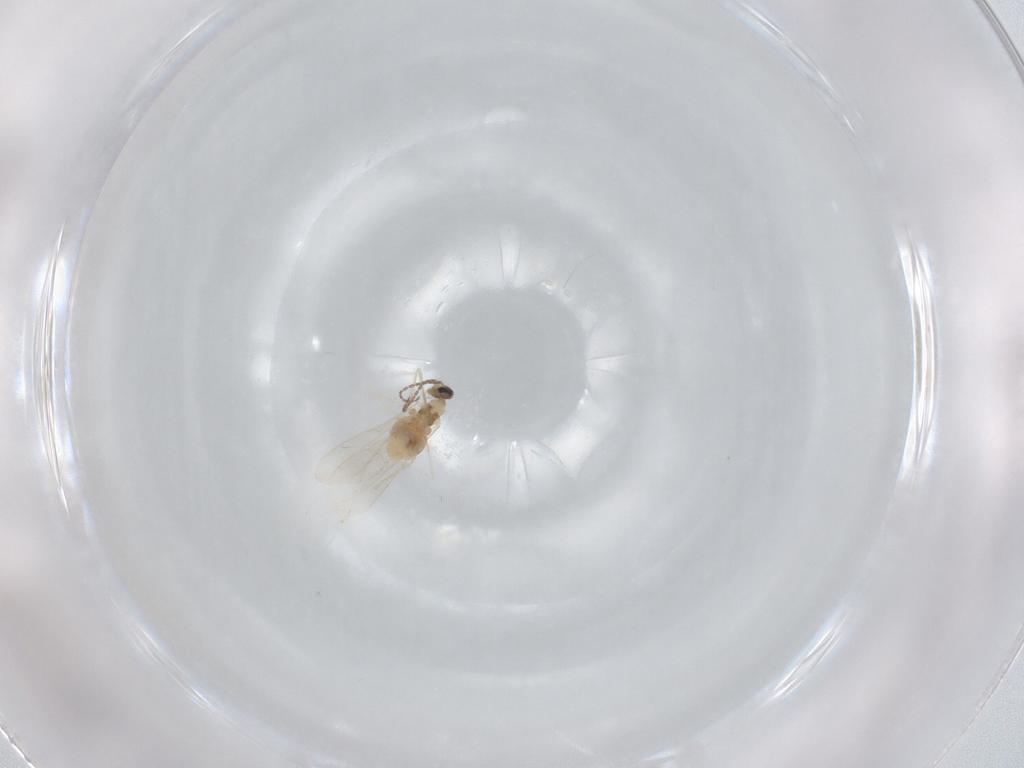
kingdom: Animalia
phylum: Arthropoda
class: Insecta
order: Diptera
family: Cecidomyiidae
